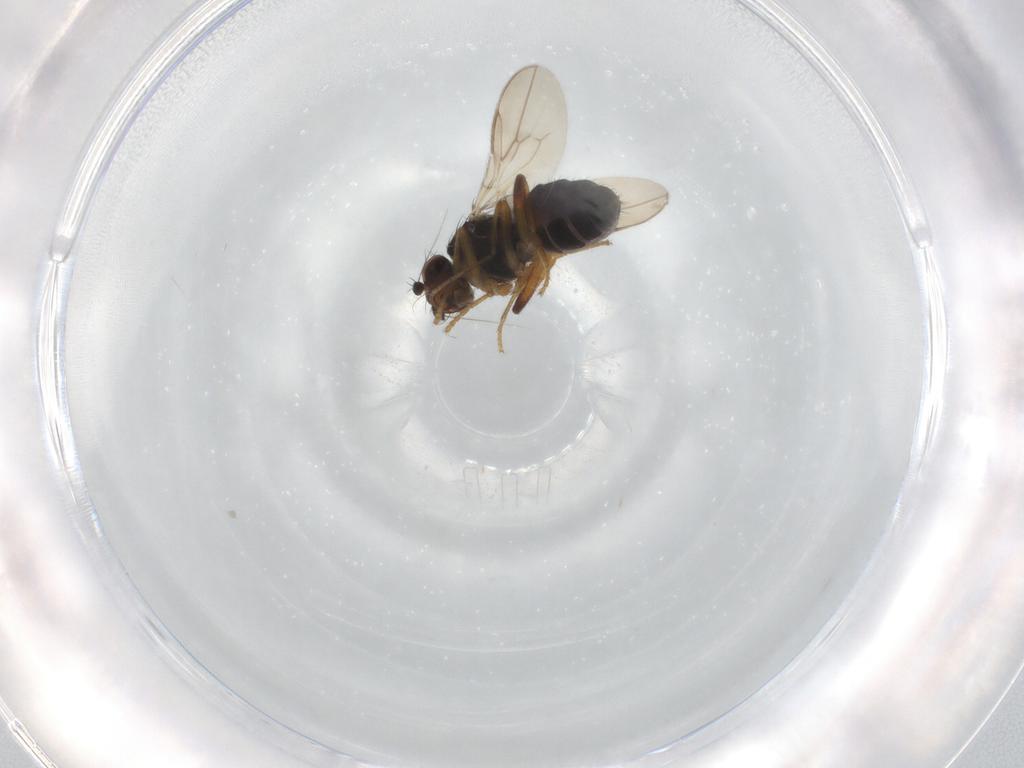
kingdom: Animalia
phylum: Arthropoda
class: Insecta
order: Diptera
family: Sphaeroceridae
